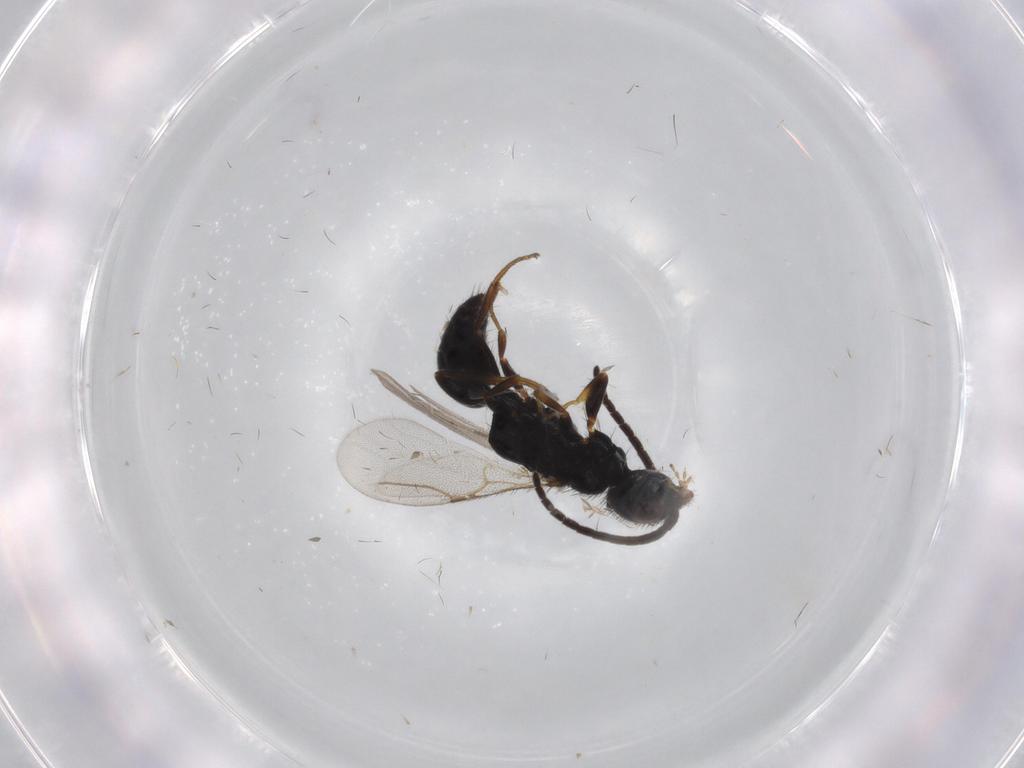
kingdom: Animalia
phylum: Arthropoda
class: Insecta
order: Hymenoptera
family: Bethylidae
